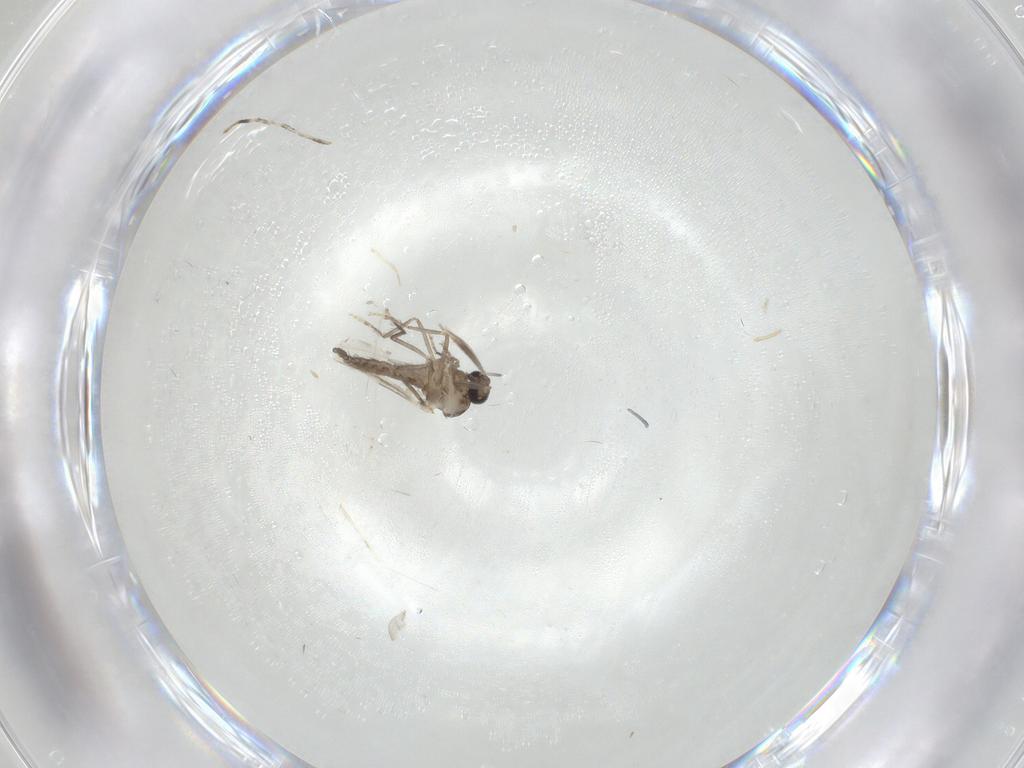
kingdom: Animalia
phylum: Arthropoda
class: Insecta
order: Diptera
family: Ceratopogonidae
